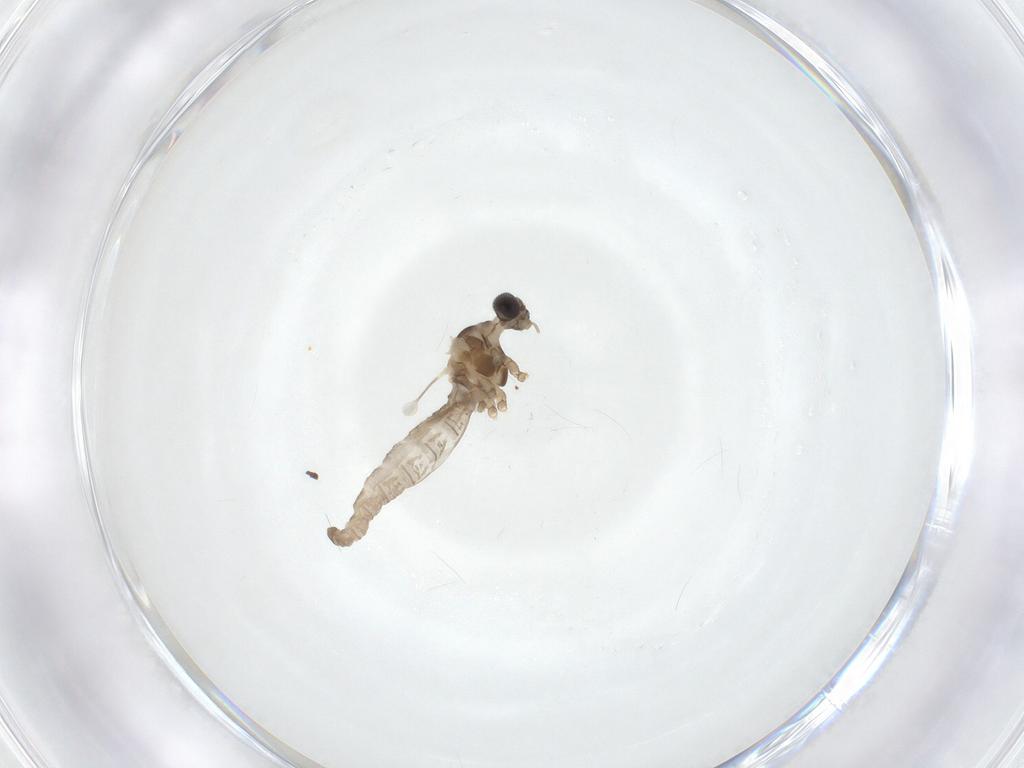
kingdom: Animalia
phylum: Arthropoda
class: Insecta
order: Diptera
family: Cecidomyiidae
